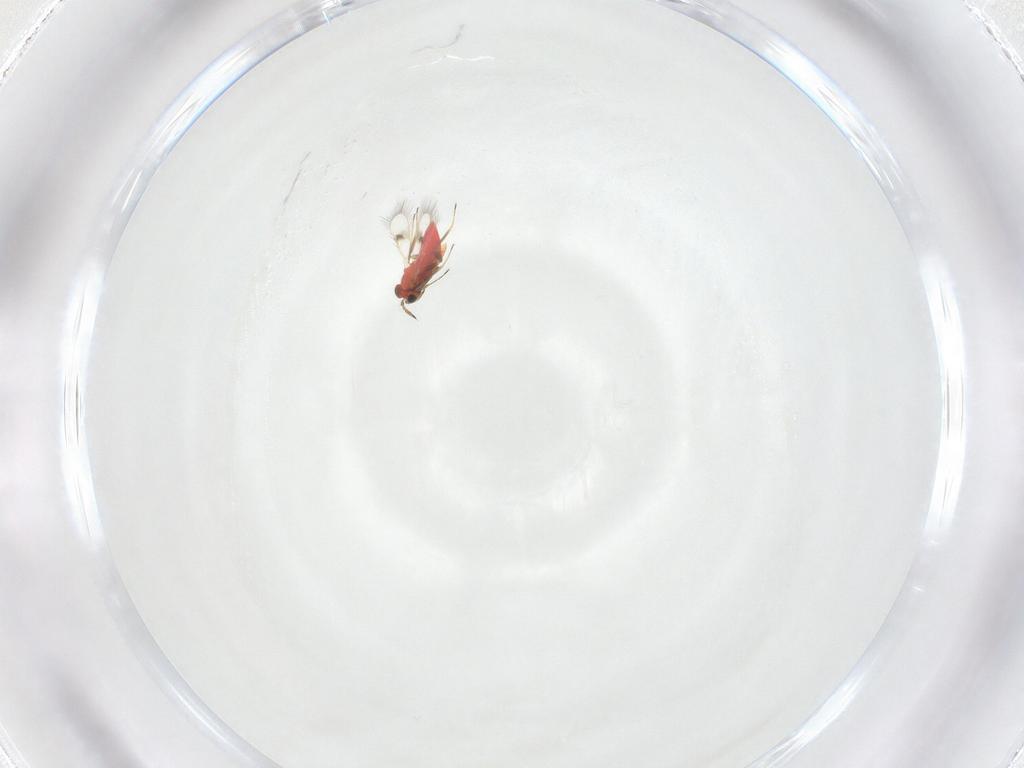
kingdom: Animalia
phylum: Arthropoda
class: Insecta
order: Hymenoptera
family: Trichogrammatidae
